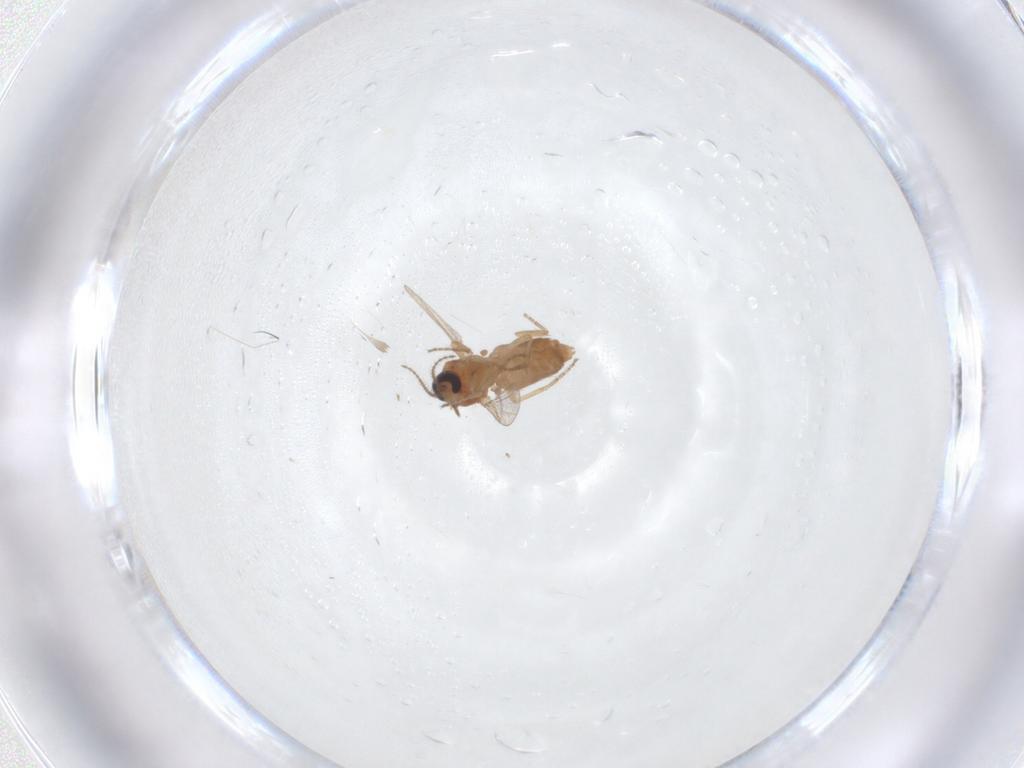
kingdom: Animalia
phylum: Arthropoda
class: Insecta
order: Diptera
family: Ceratopogonidae
